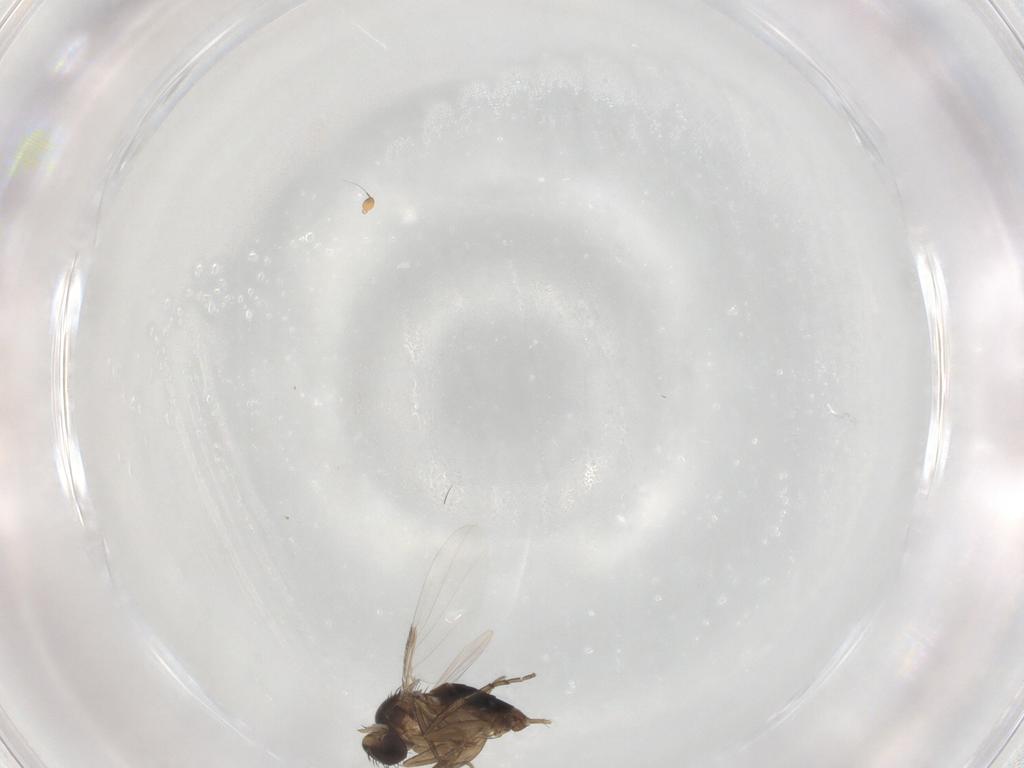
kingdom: Animalia
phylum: Arthropoda
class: Insecta
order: Diptera
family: Phoridae
